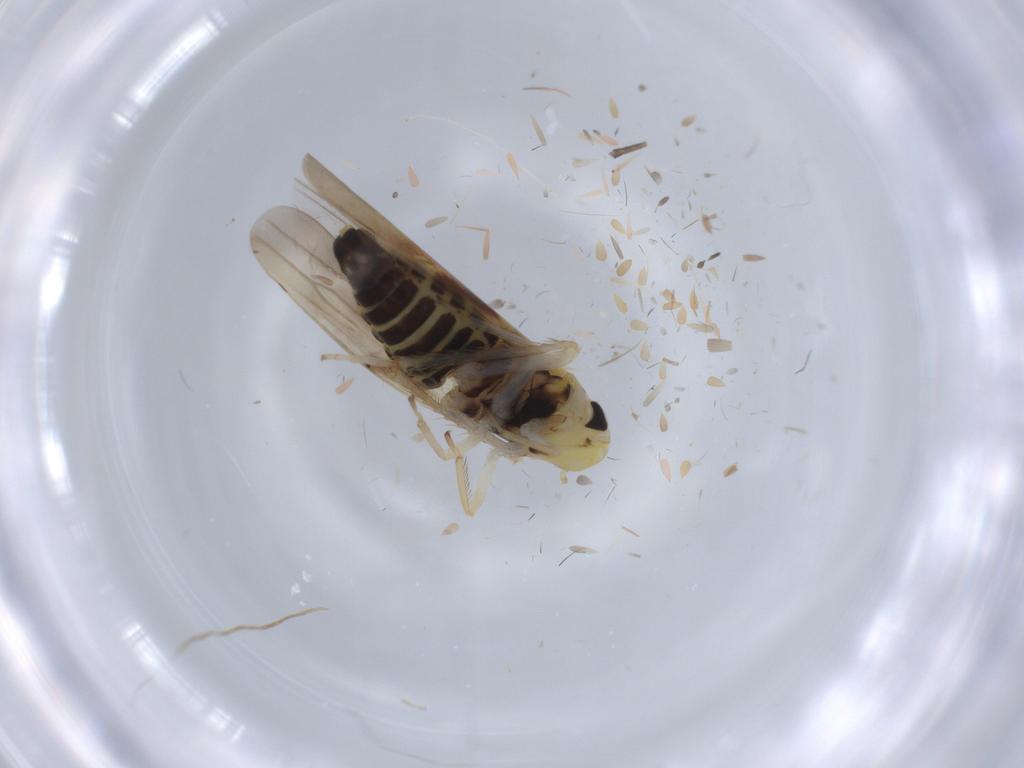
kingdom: Animalia
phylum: Arthropoda
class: Insecta
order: Hemiptera
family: Cicadellidae
